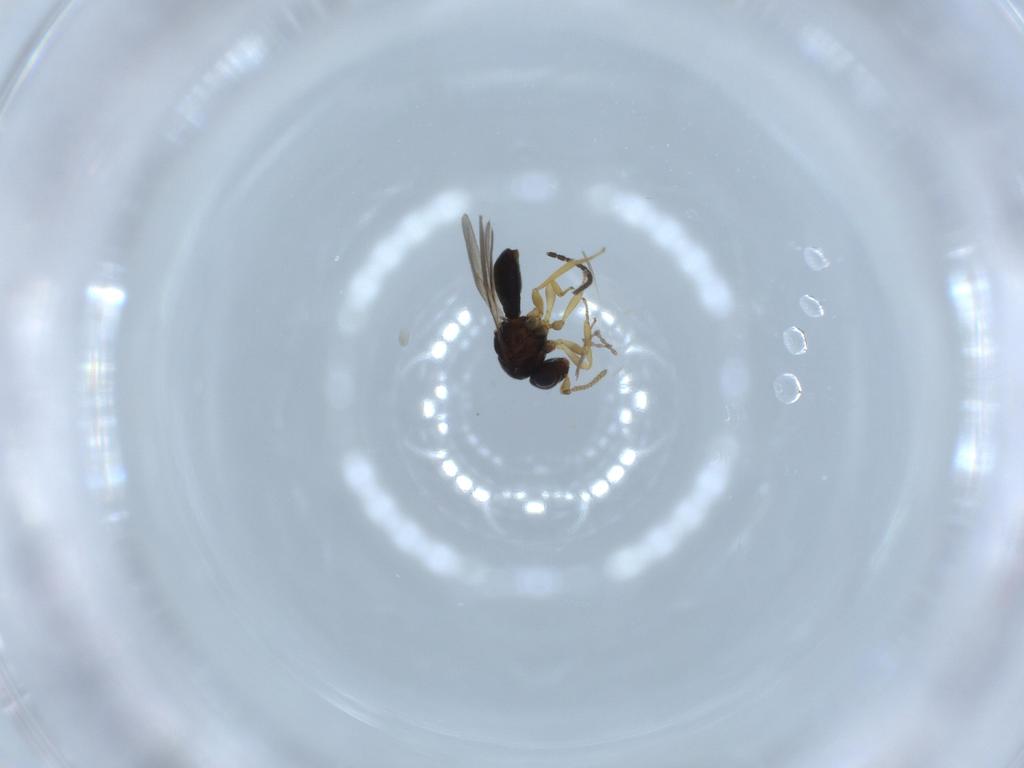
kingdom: Animalia
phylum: Arthropoda
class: Insecta
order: Hymenoptera
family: Scelionidae
